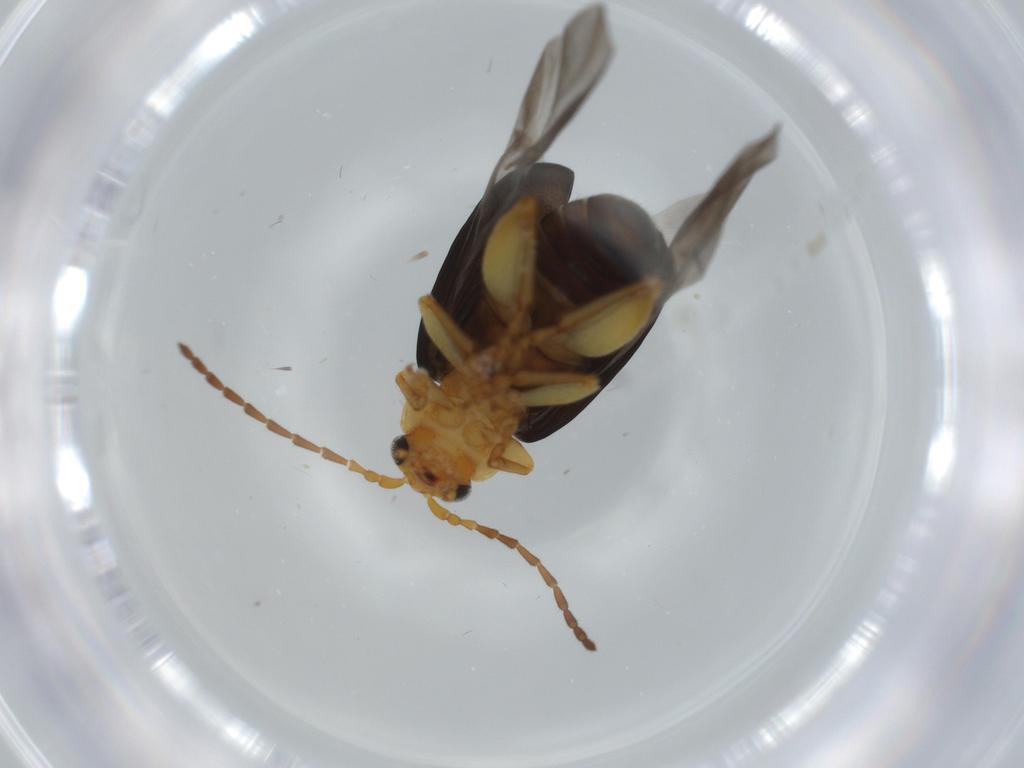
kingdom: Animalia
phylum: Arthropoda
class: Insecta
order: Coleoptera
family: Chrysomelidae
